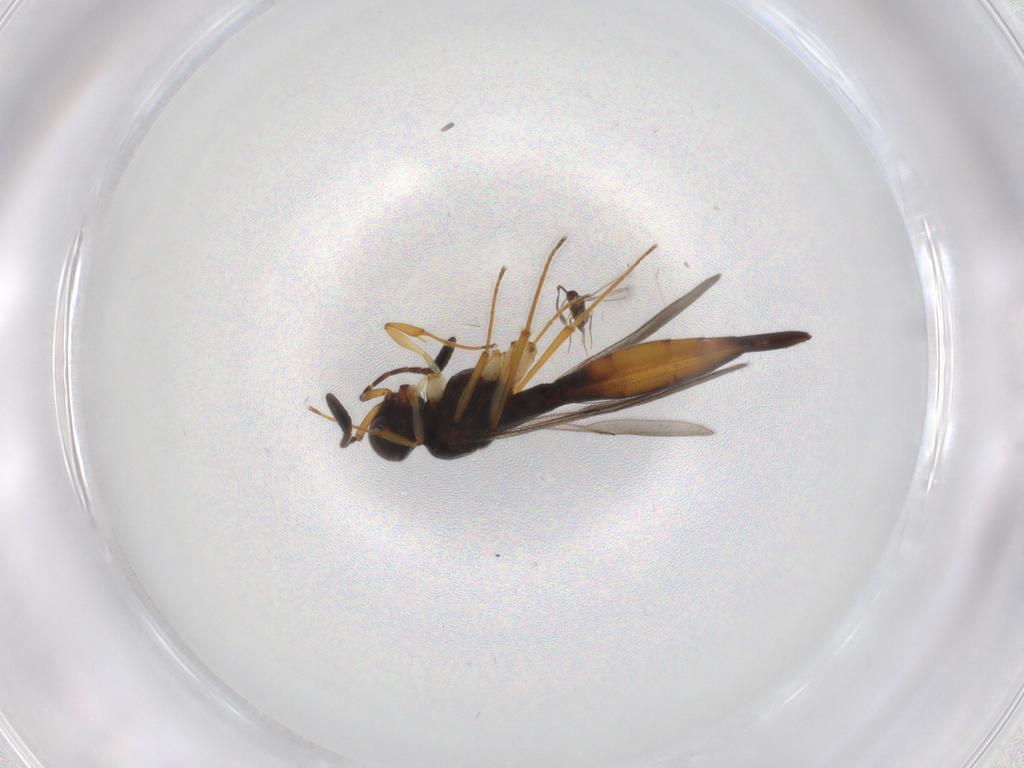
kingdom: Animalia
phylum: Arthropoda
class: Insecta
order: Hymenoptera
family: Scelionidae
